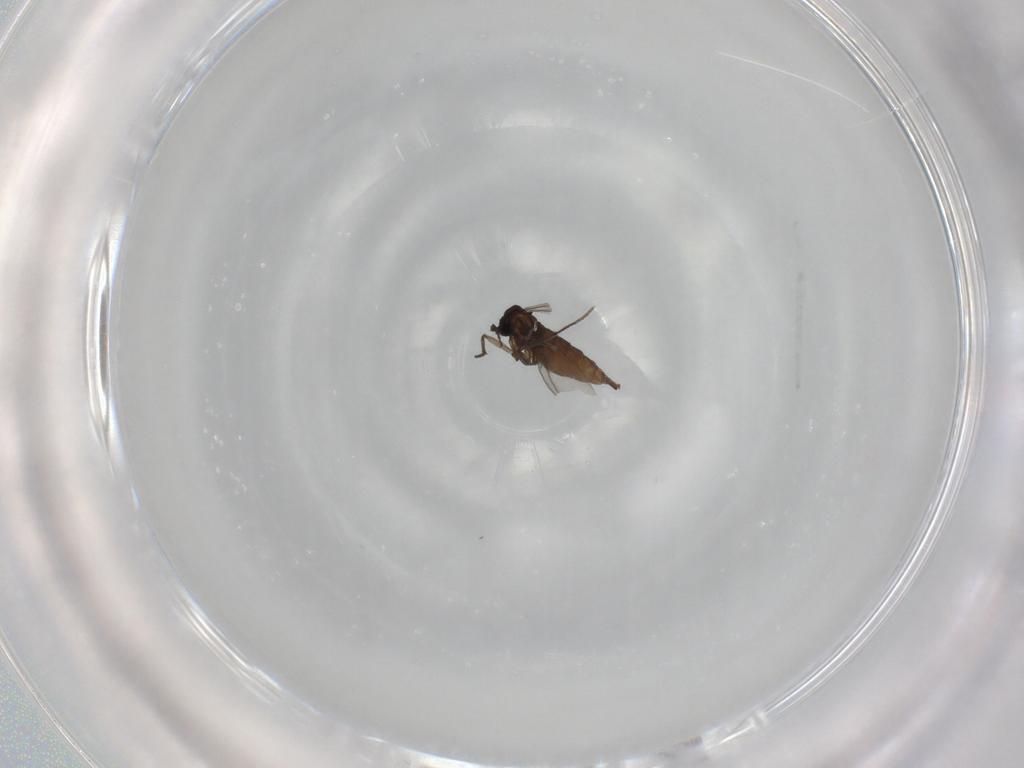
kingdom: Animalia
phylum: Arthropoda
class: Insecta
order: Diptera
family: Sciaridae
